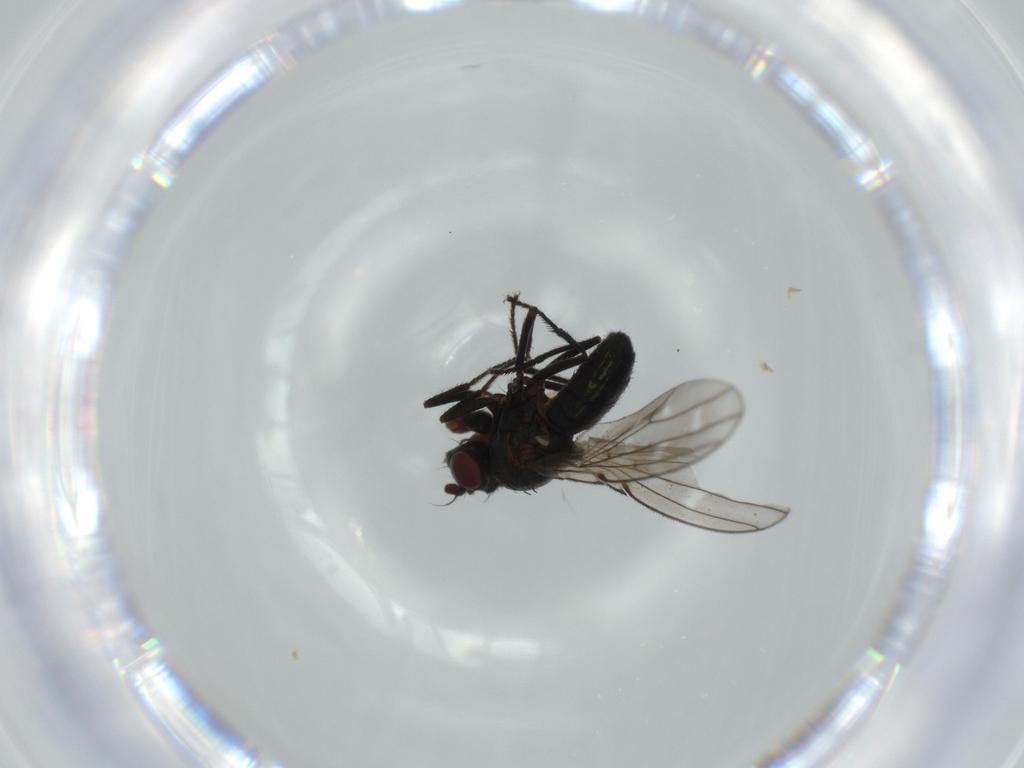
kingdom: Animalia
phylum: Arthropoda
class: Insecta
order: Diptera
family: Ephydridae
